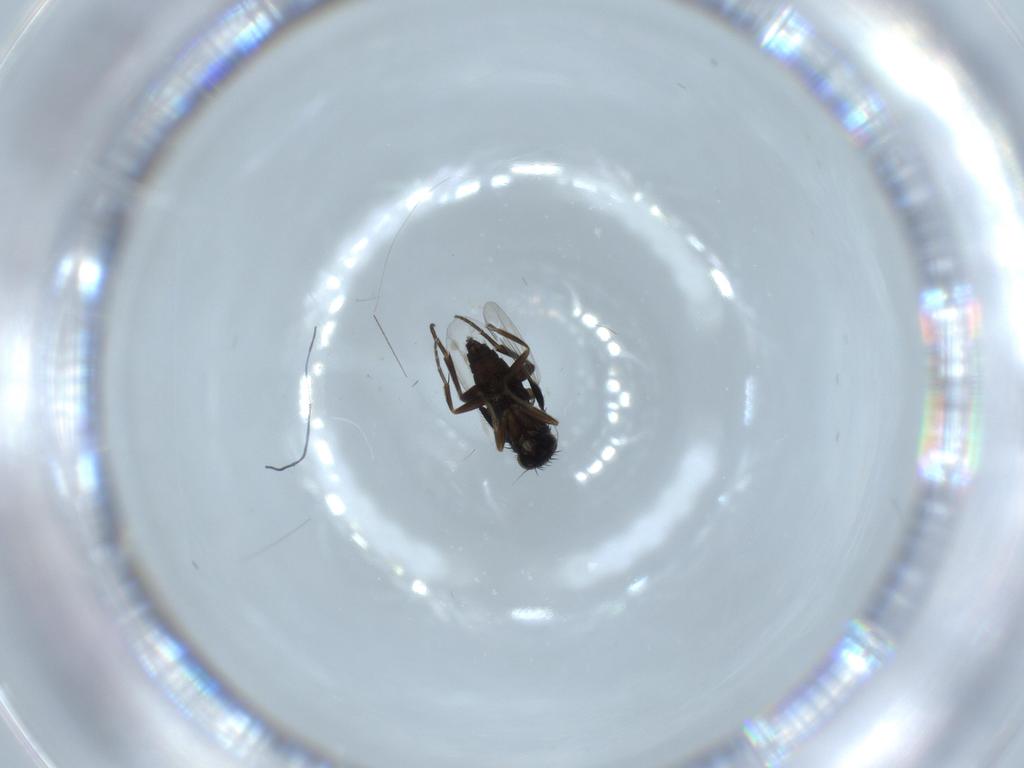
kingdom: Animalia
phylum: Arthropoda
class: Insecta
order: Diptera
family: Phoridae
